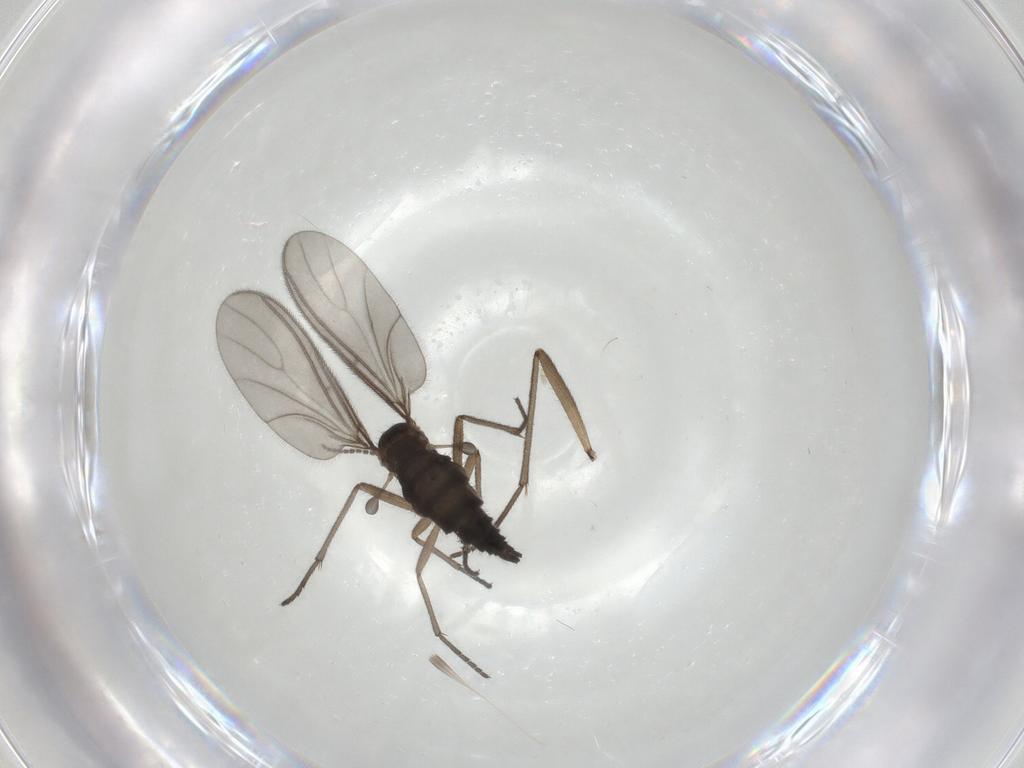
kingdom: Animalia
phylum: Arthropoda
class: Insecta
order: Diptera
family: Sciaridae
